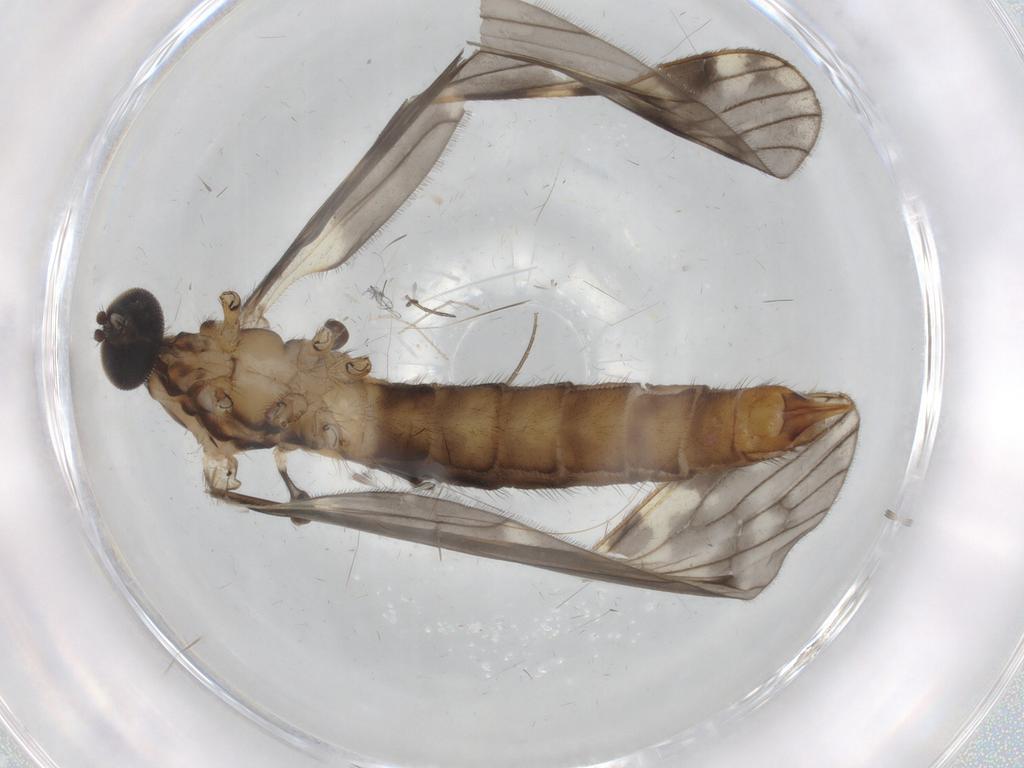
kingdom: Animalia
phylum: Arthropoda
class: Insecta
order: Diptera
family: Limoniidae
